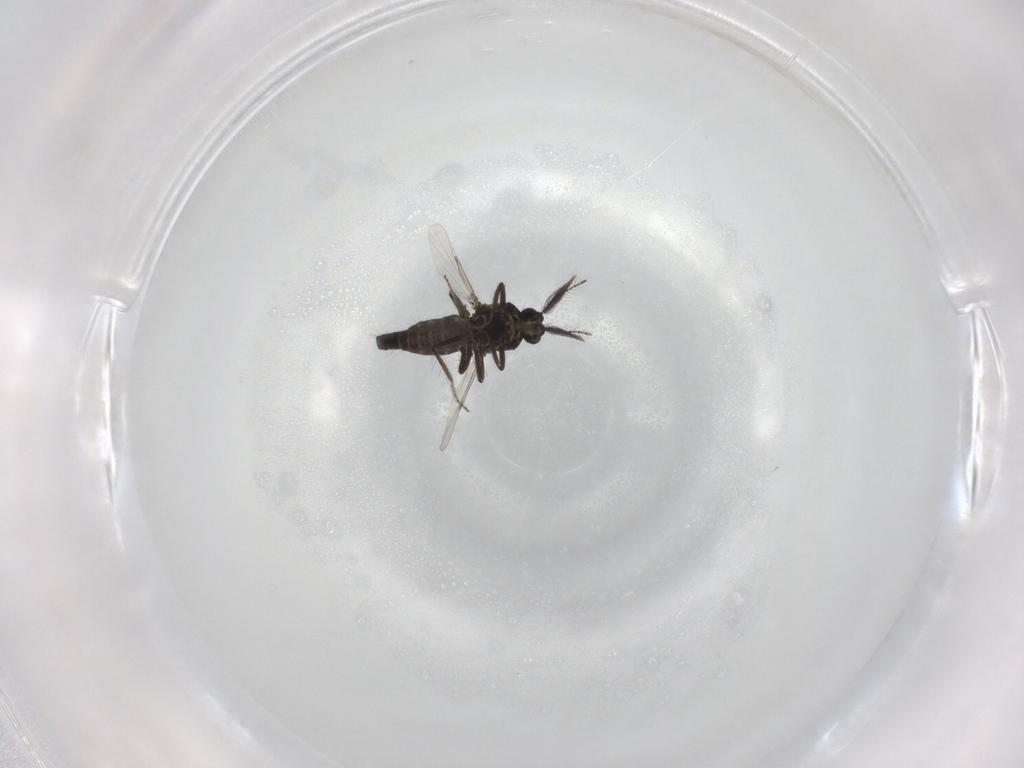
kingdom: Animalia
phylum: Arthropoda
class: Insecta
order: Diptera
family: Ceratopogonidae
